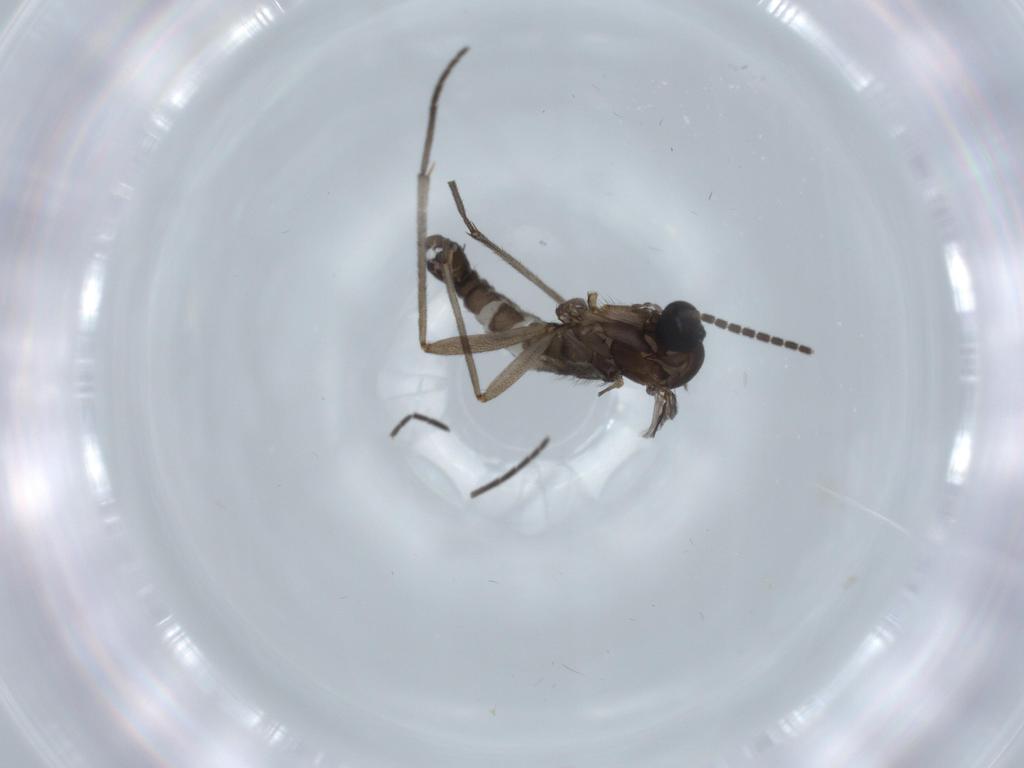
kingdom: Animalia
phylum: Arthropoda
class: Insecta
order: Diptera
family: Sciaridae
